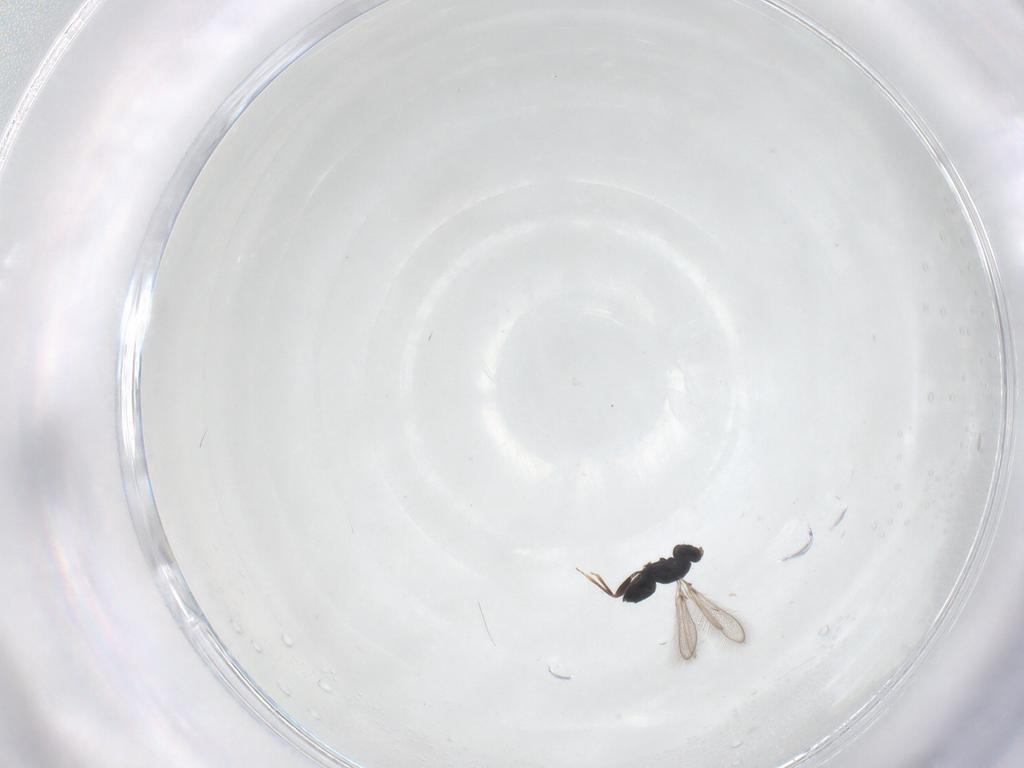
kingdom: Animalia
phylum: Arthropoda
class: Insecta
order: Hymenoptera
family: Mymaridae
